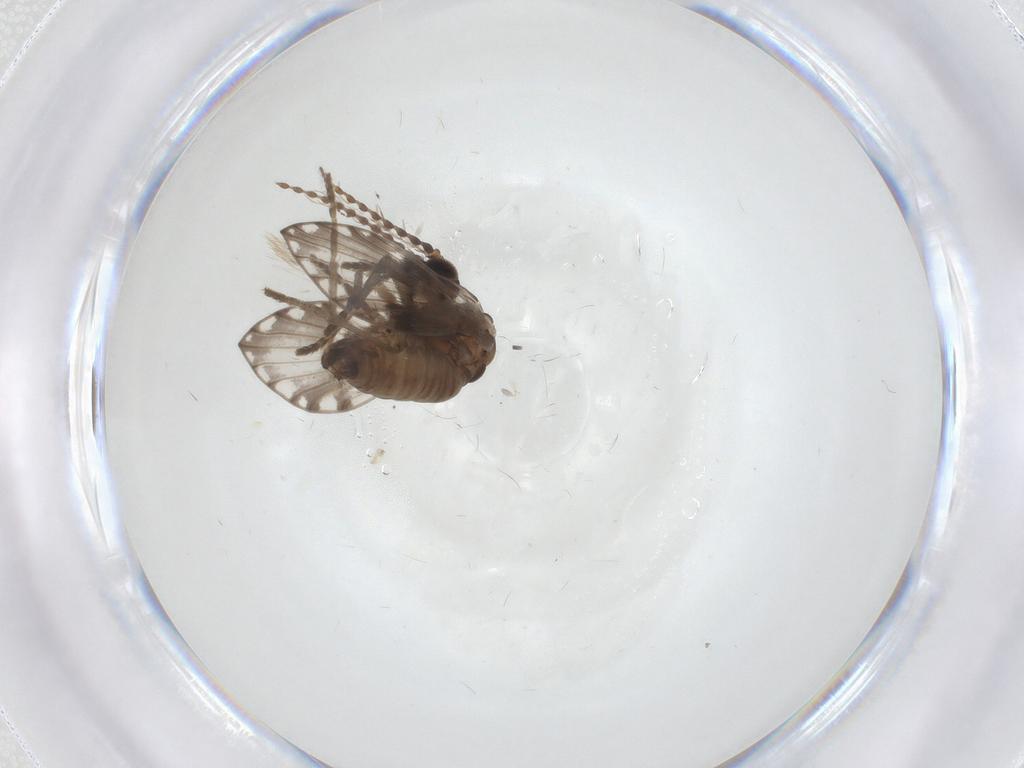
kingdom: Animalia
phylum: Arthropoda
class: Insecta
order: Diptera
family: Psychodidae
